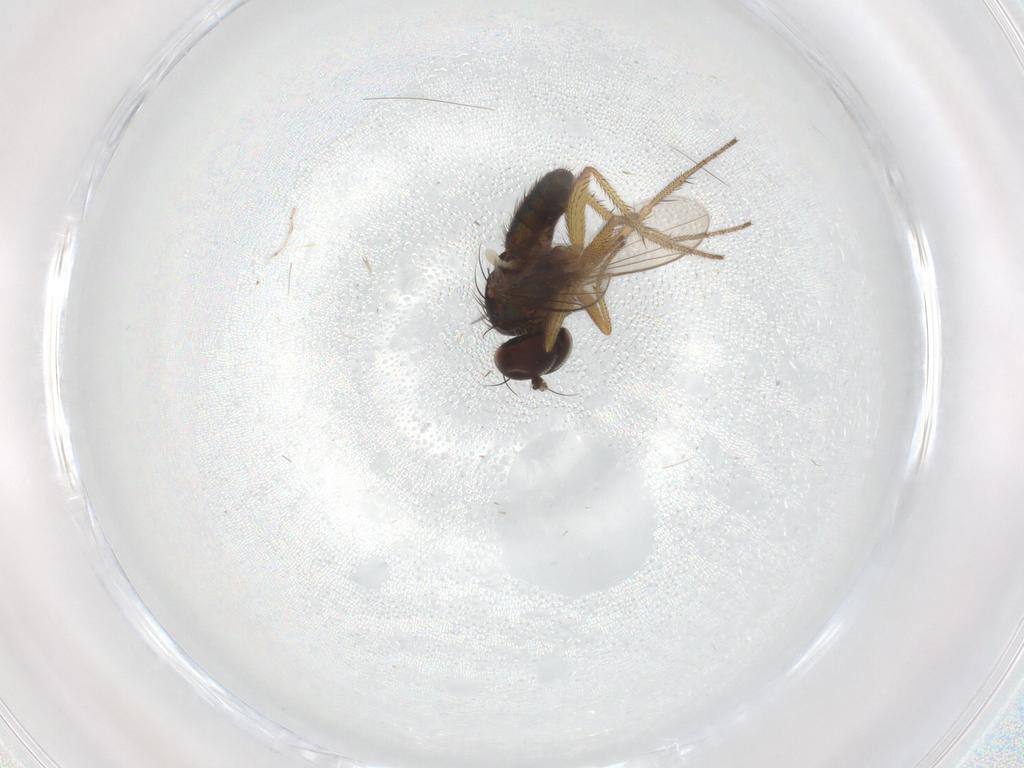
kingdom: Animalia
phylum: Arthropoda
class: Insecta
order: Diptera
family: Dolichopodidae
